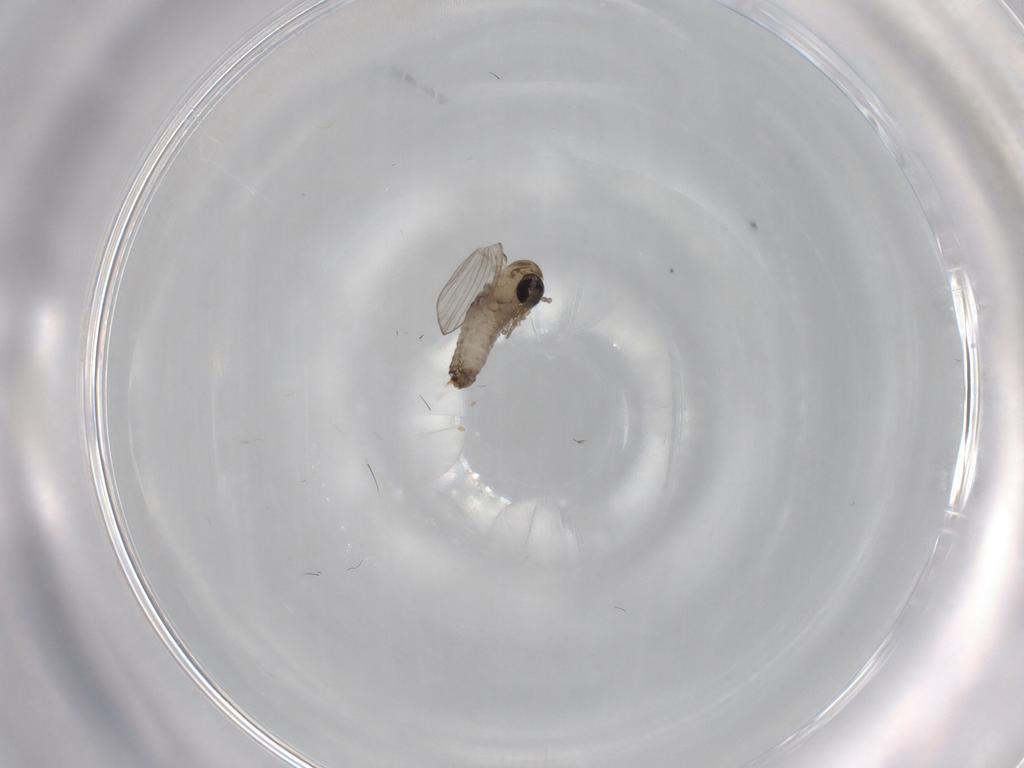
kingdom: Animalia
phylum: Arthropoda
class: Insecta
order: Diptera
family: Psychodidae
